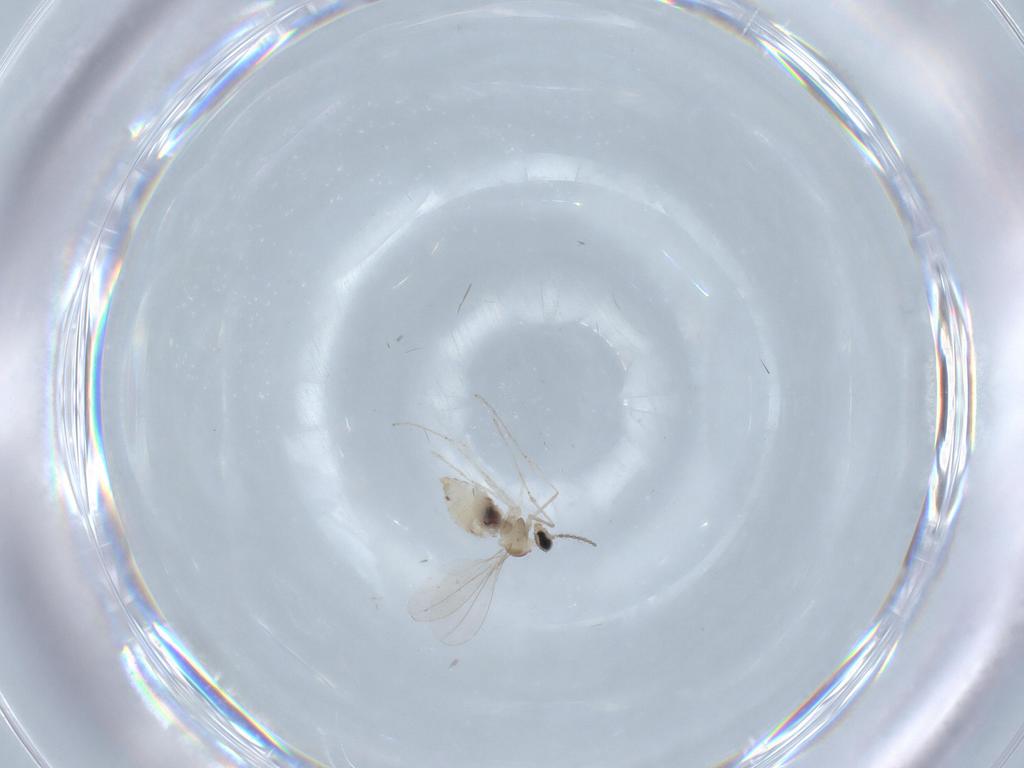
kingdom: Animalia
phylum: Arthropoda
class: Insecta
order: Diptera
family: Cecidomyiidae
